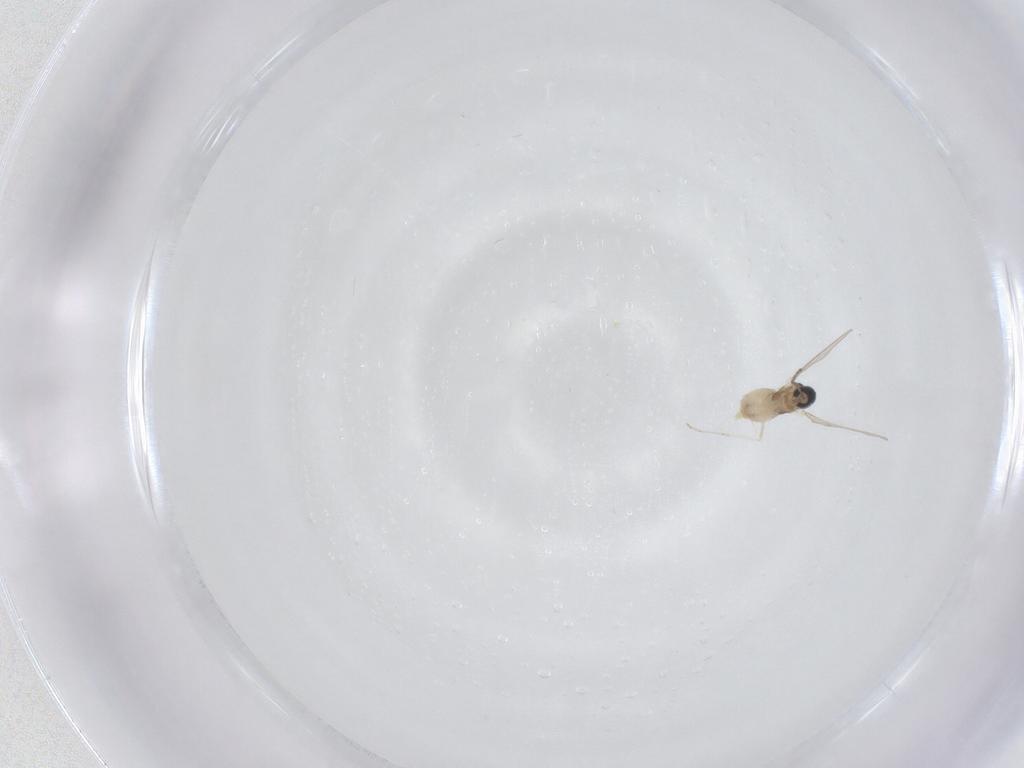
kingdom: Animalia
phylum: Arthropoda
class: Insecta
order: Diptera
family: Cecidomyiidae
